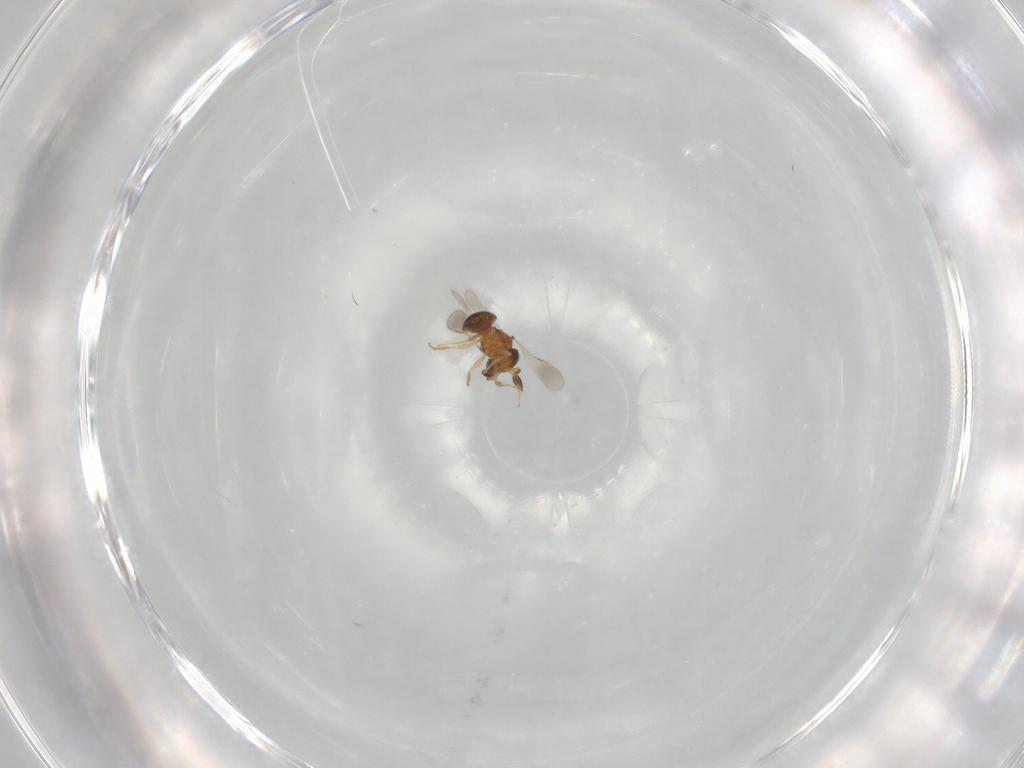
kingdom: Animalia
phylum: Arthropoda
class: Insecta
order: Hymenoptera
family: Scelionidae
